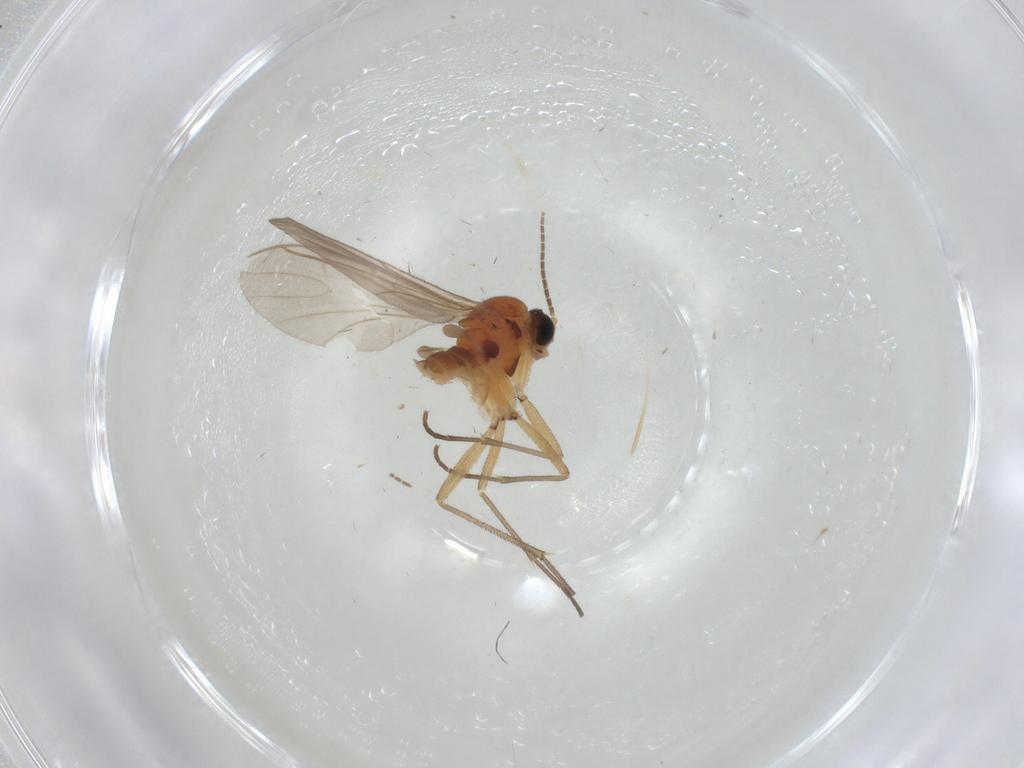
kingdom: Animalia
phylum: Arthropoda
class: Insecta
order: Diptera
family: Sciaridae
